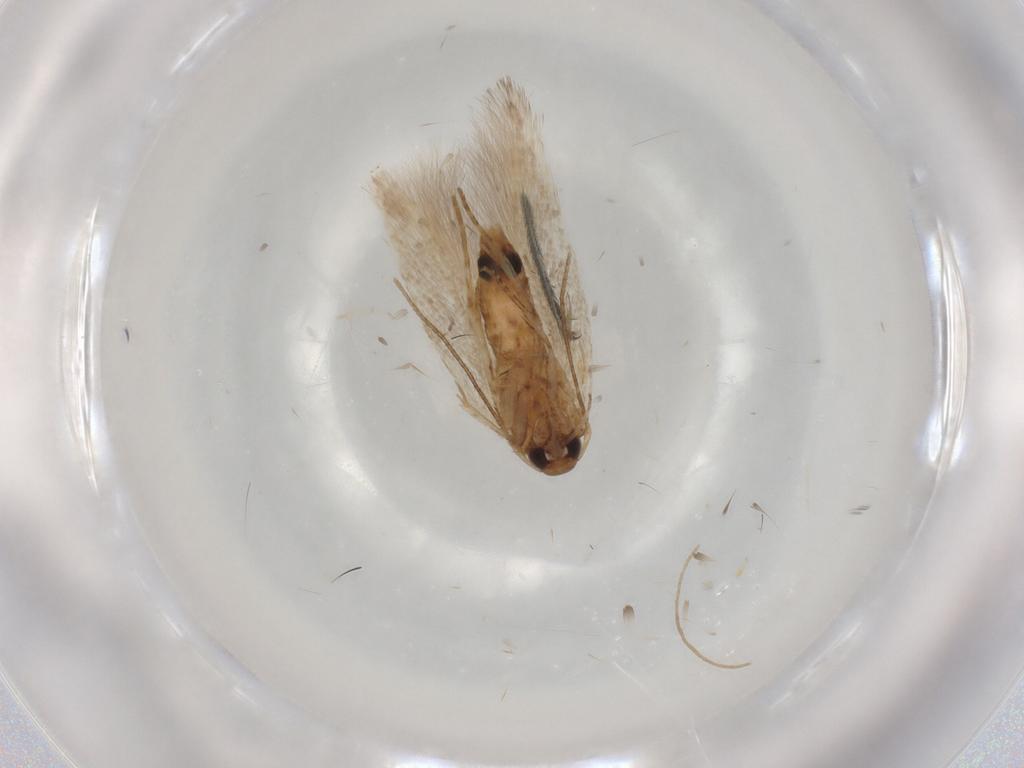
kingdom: Animalia
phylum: Arthropoda
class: Insecta
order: Lepidoptera
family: Cosmopterigidae
